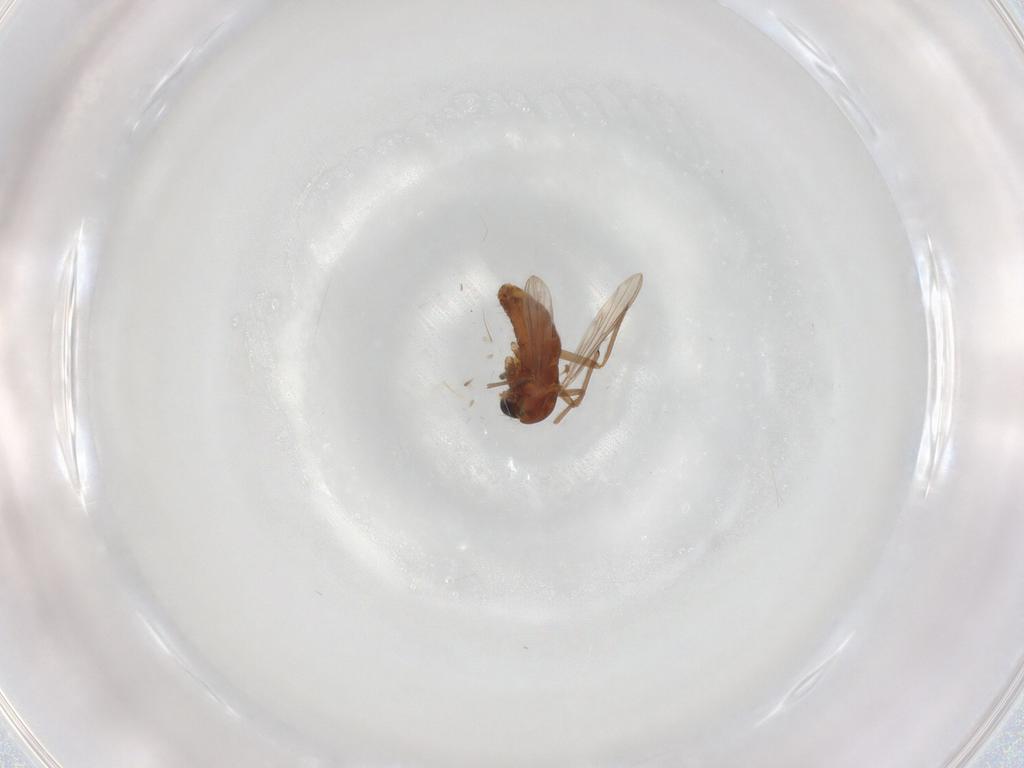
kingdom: Animalia
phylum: Arthropoda
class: Insecta
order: Diptera
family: Chironomidae
